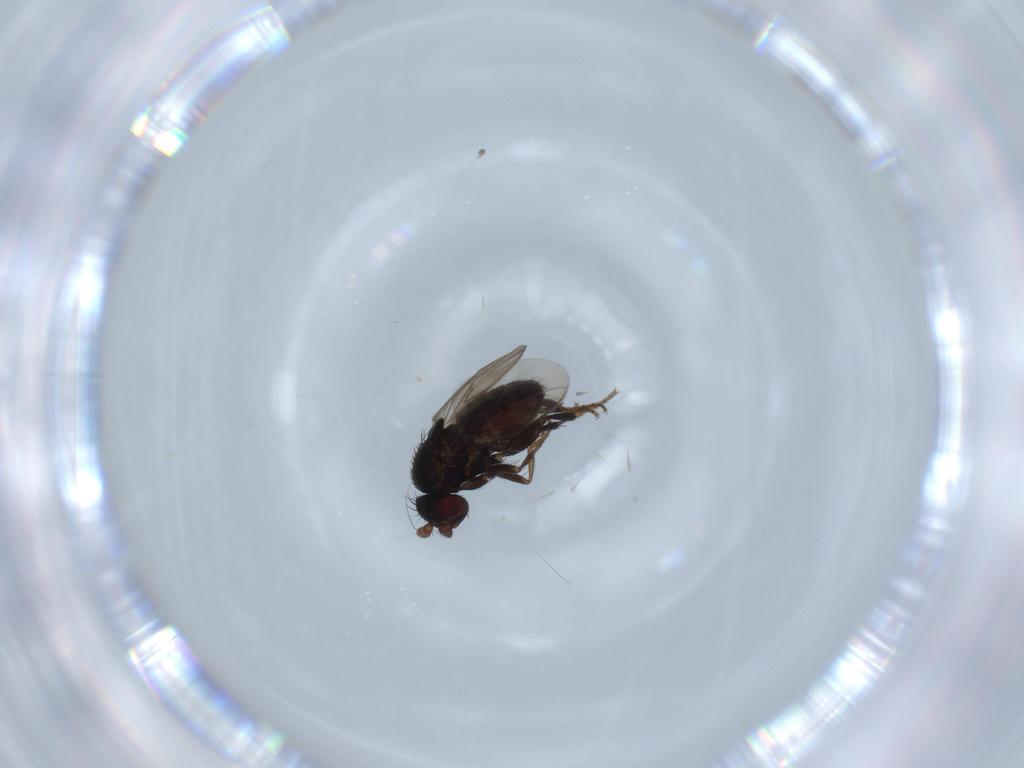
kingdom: Animalia
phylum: Arthropoda
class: Insecta
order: Diptera
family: Sphaeroceridae
